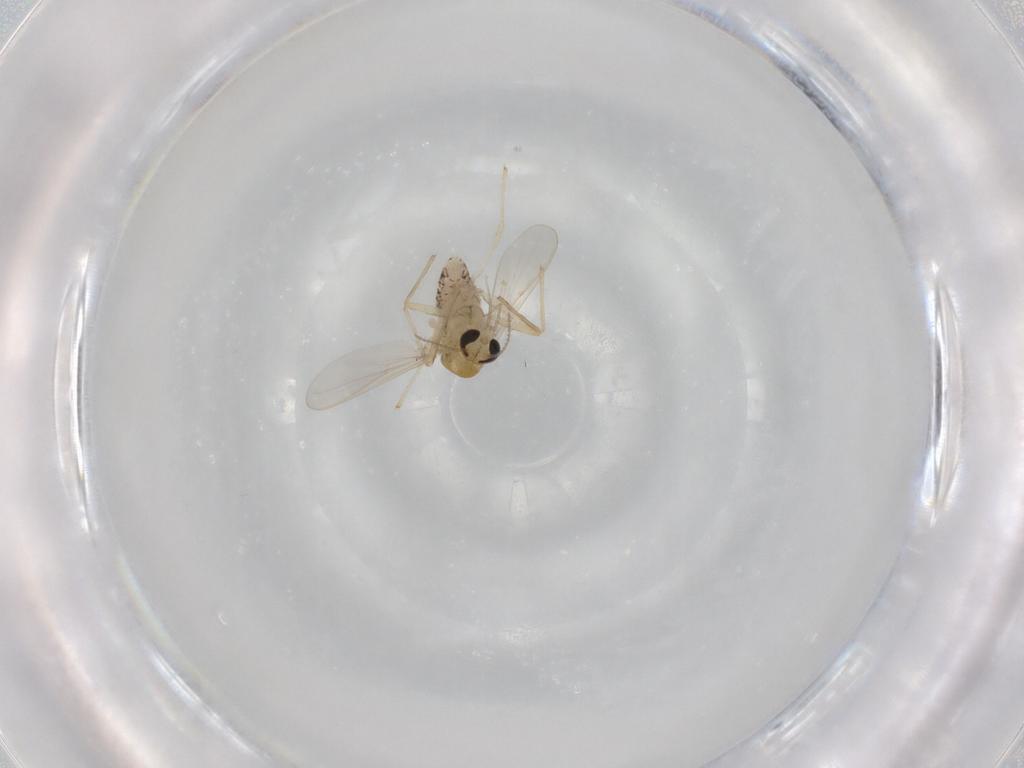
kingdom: Animalia
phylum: Arthropoda
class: Insecta
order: Diptera
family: Chironomidae
